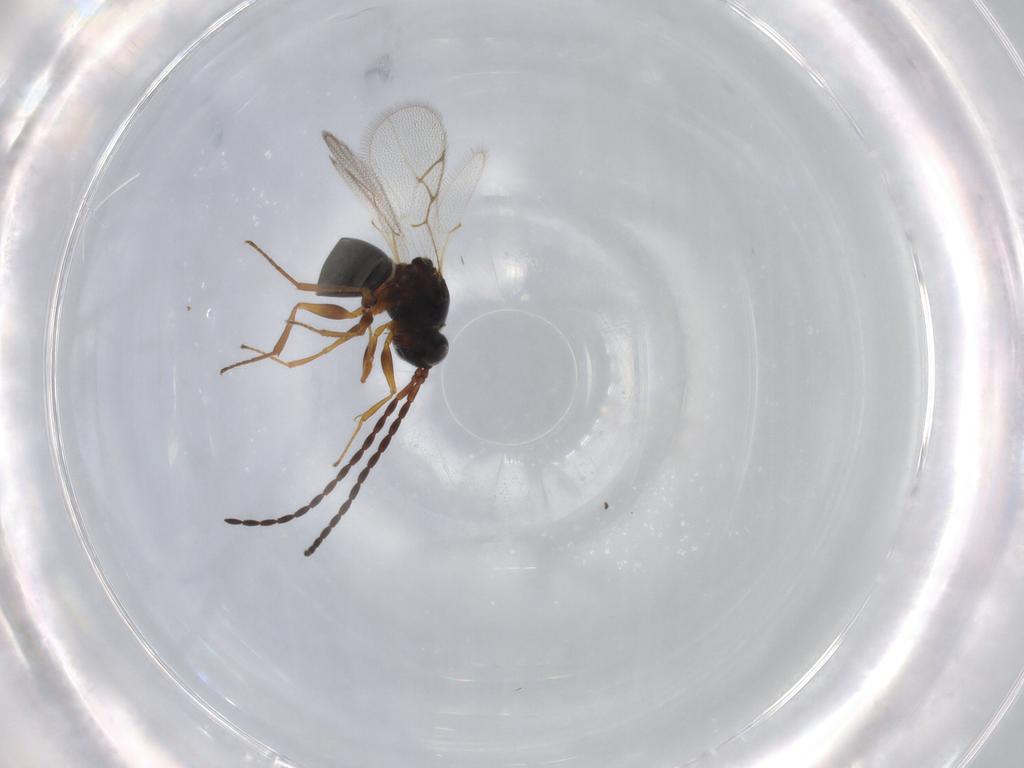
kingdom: Animalia
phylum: Arthropoda
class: Insecta
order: Hymenoptera
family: Figitidae
